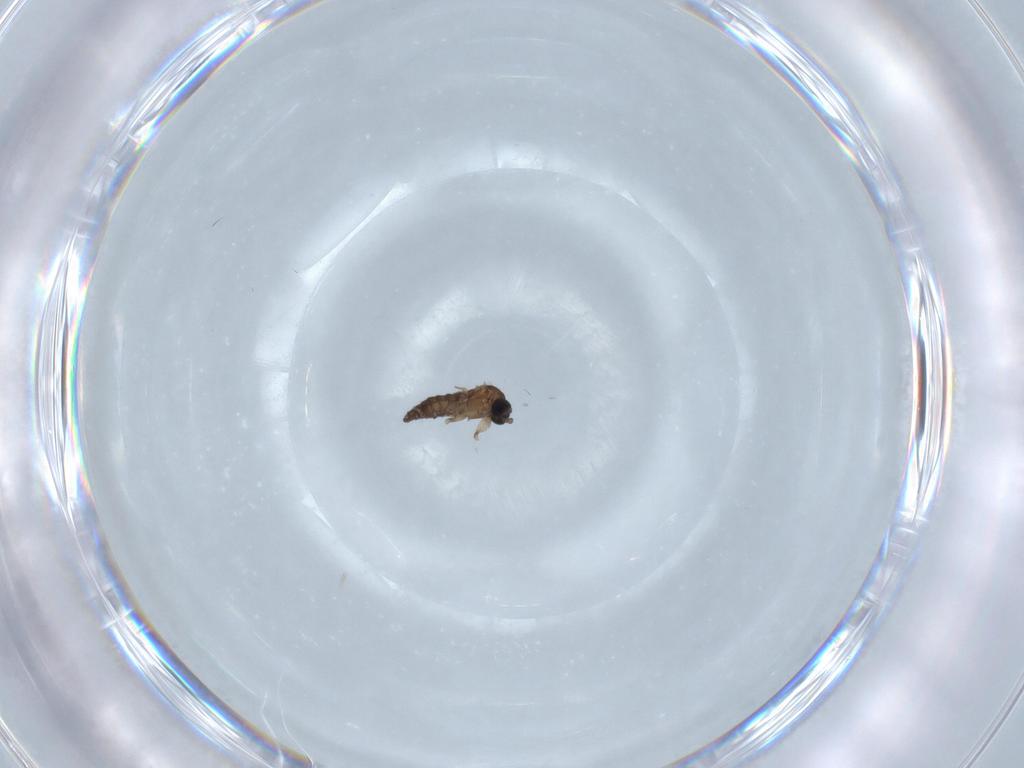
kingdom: Animalia
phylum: Arthropoda
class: Insecta
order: Diptera
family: Sciaridae
